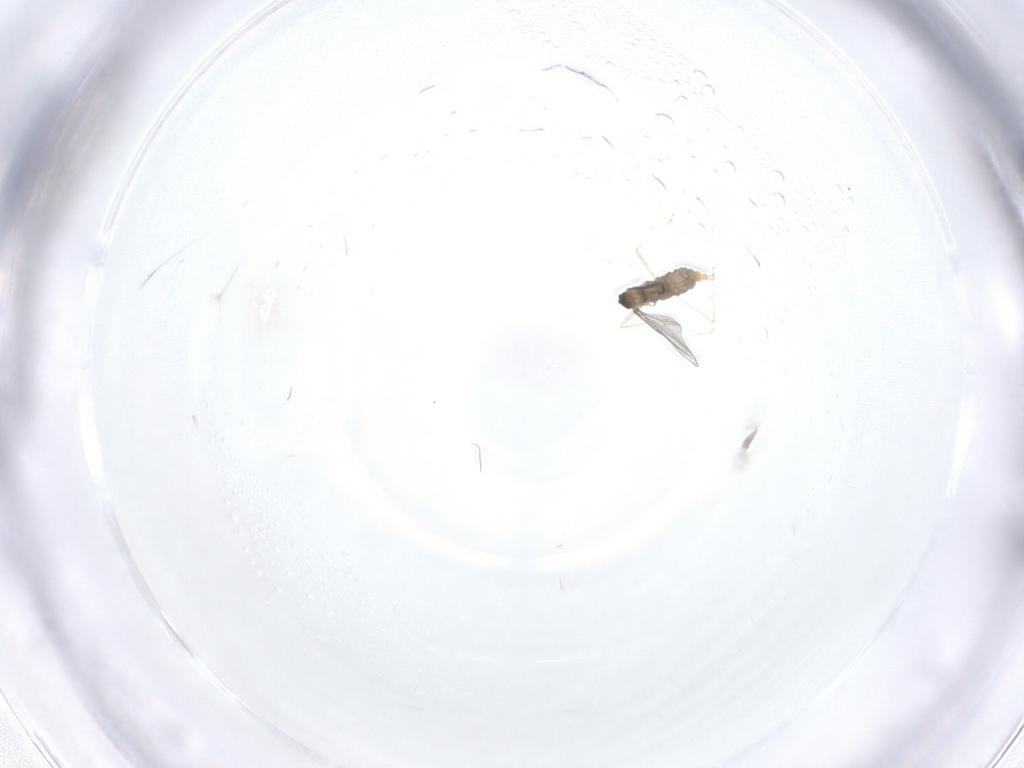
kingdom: Animalia
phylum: Arthropoda
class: Insecta
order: Diptera
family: Cecidomyiidae
